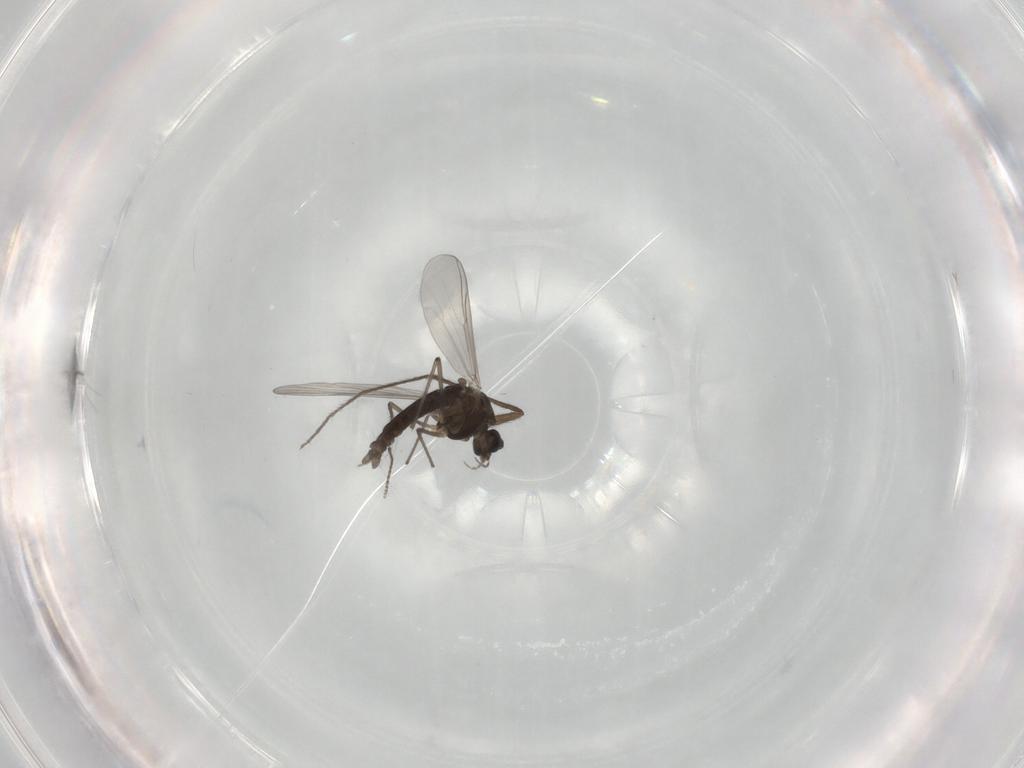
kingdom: Animalia
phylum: Arthropoda
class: Insecta
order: Diptera
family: Chironomidae
